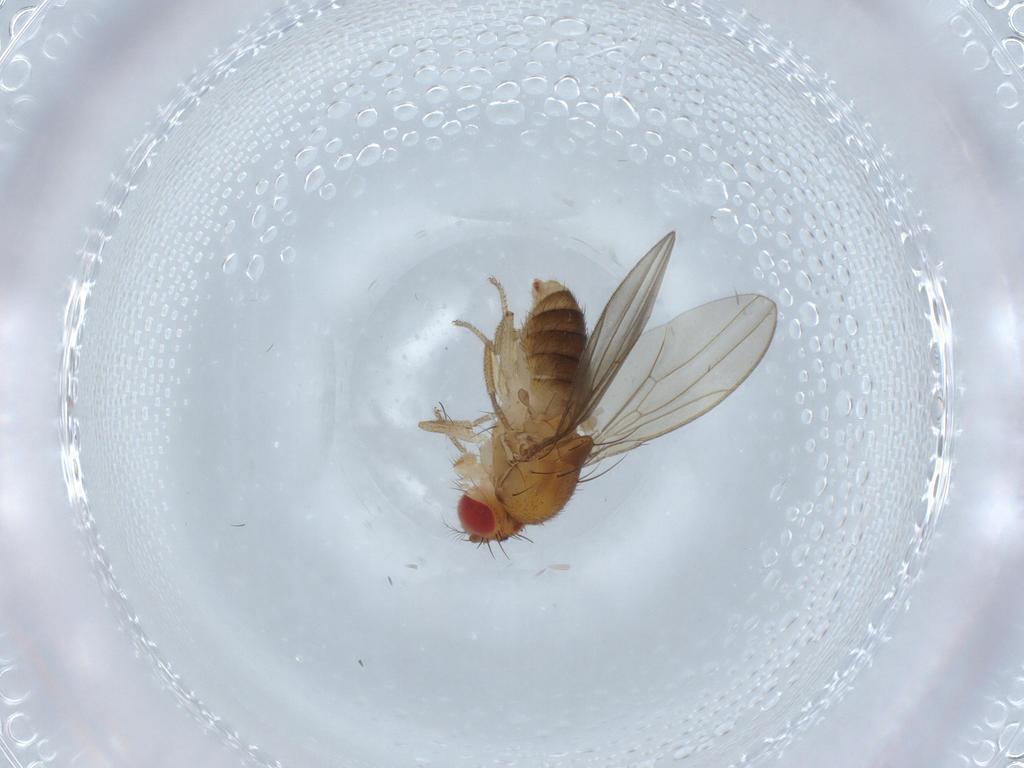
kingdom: Animalia
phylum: Arthropoda
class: Insecta
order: Diptera
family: Drosophilidae
